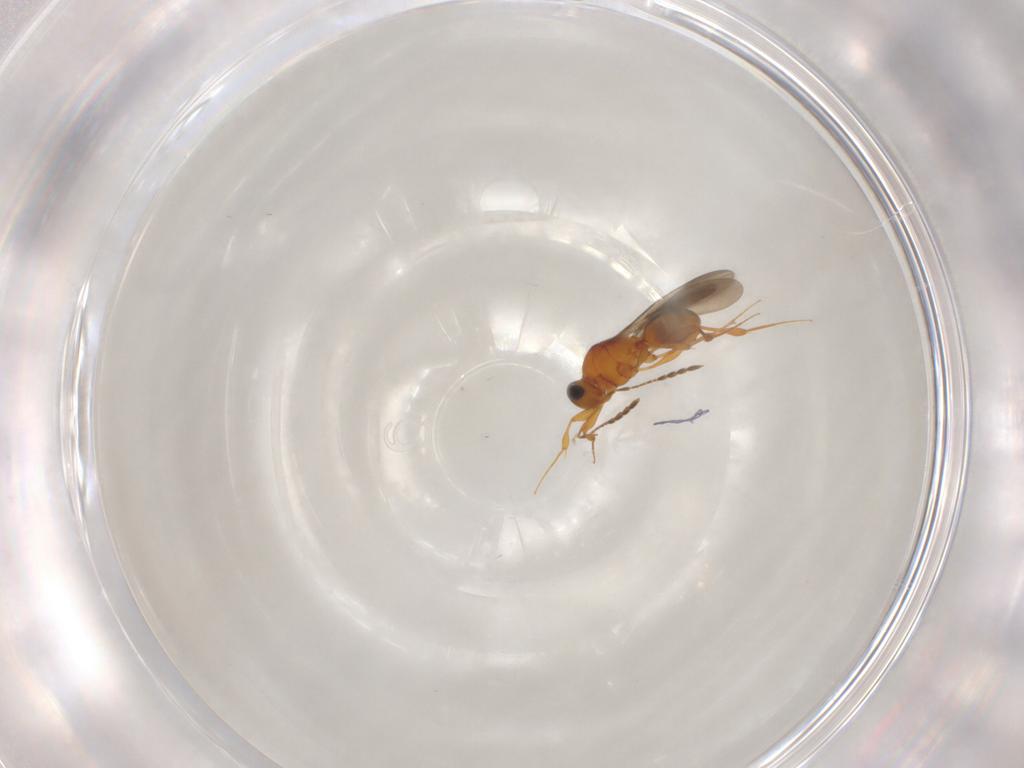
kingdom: Animalia
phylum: Arthropoda
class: Insecta
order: Hymenoptera
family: Platygastridae
